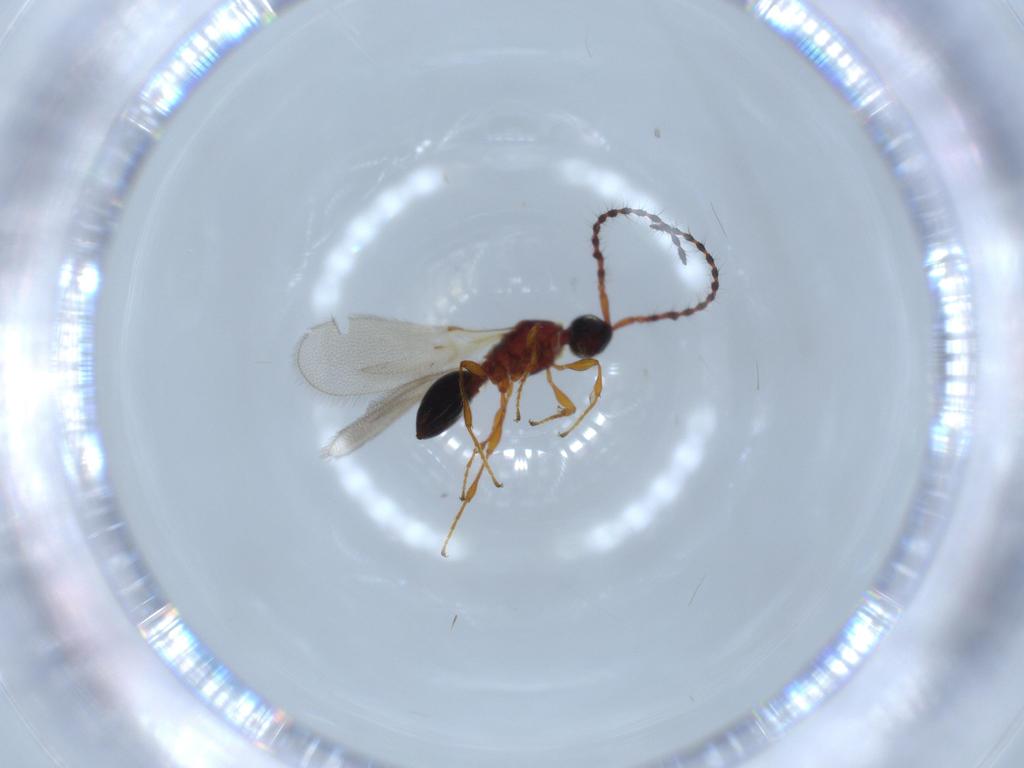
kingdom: Animalia
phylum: Arthropoda
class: Insecta
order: Hymenoptera
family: Diapriidae
